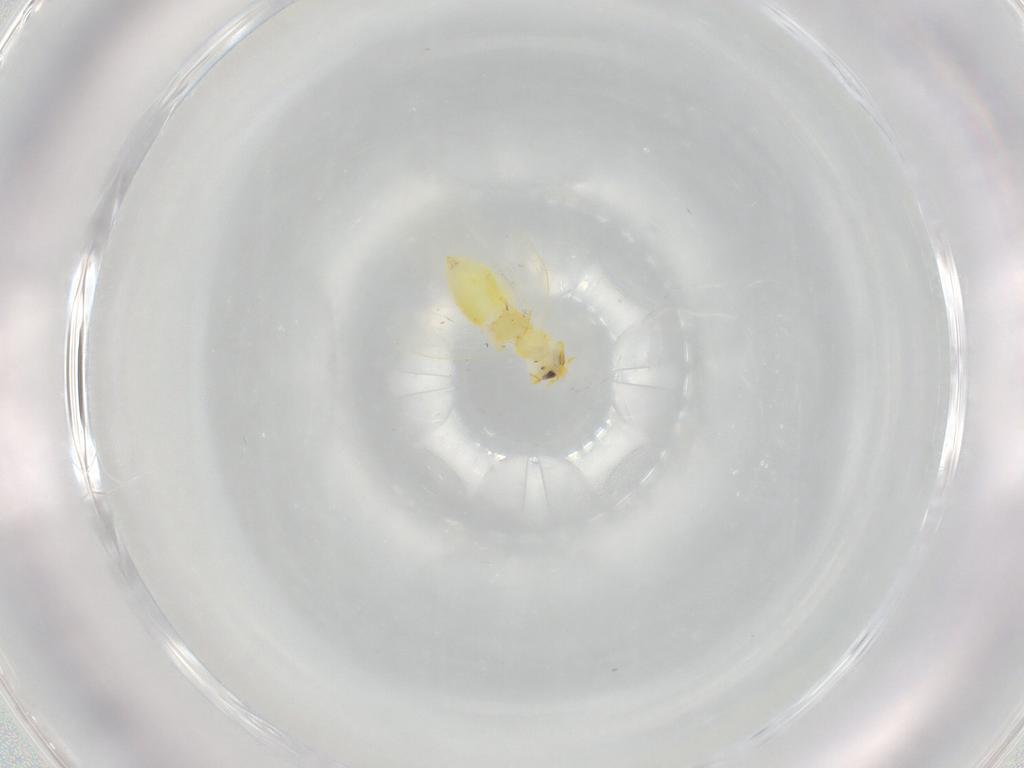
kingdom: Animalia
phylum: Arthropoda
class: Insecta
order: Hemiptera
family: Aleyrodidae
